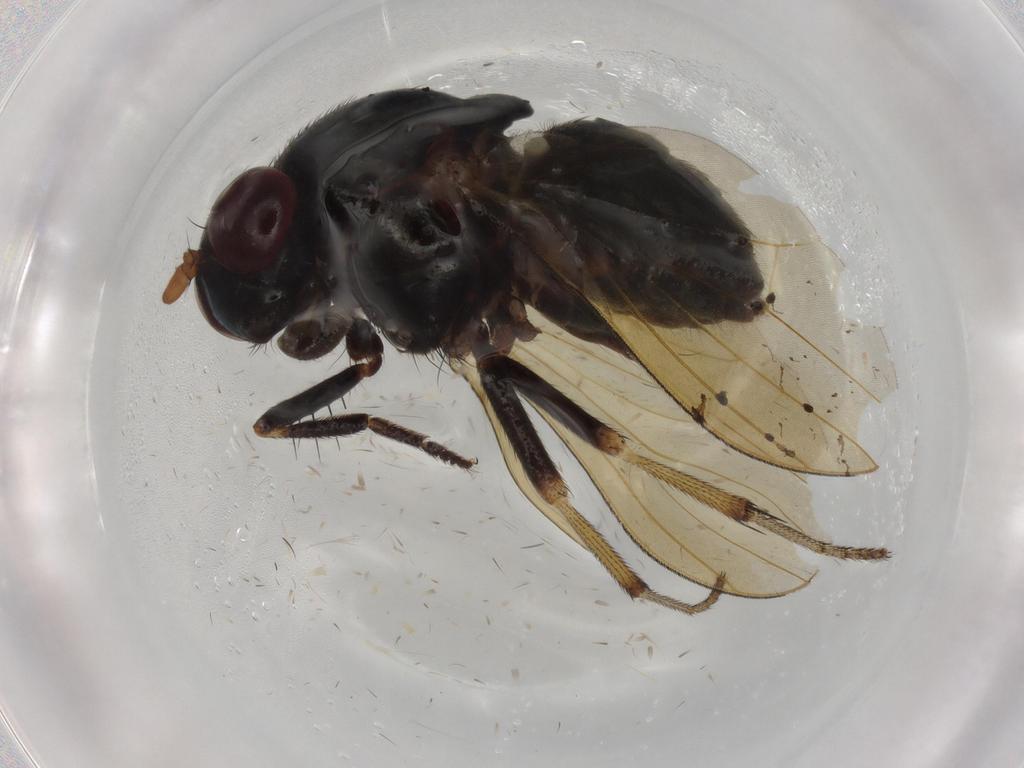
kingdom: Animalia
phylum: Arthropoda
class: Insecta
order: Diptera
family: Cecidomyiidae
